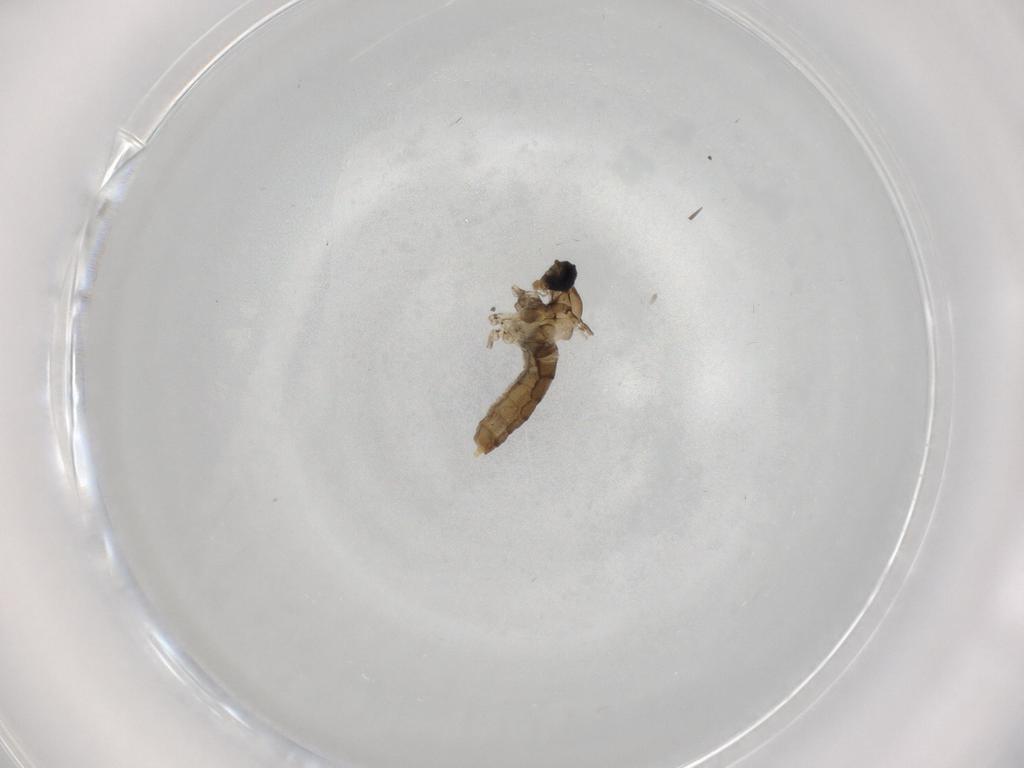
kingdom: Animalia
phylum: Arthropoda
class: Insecta
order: Diptera
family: Cecidomyiidae
